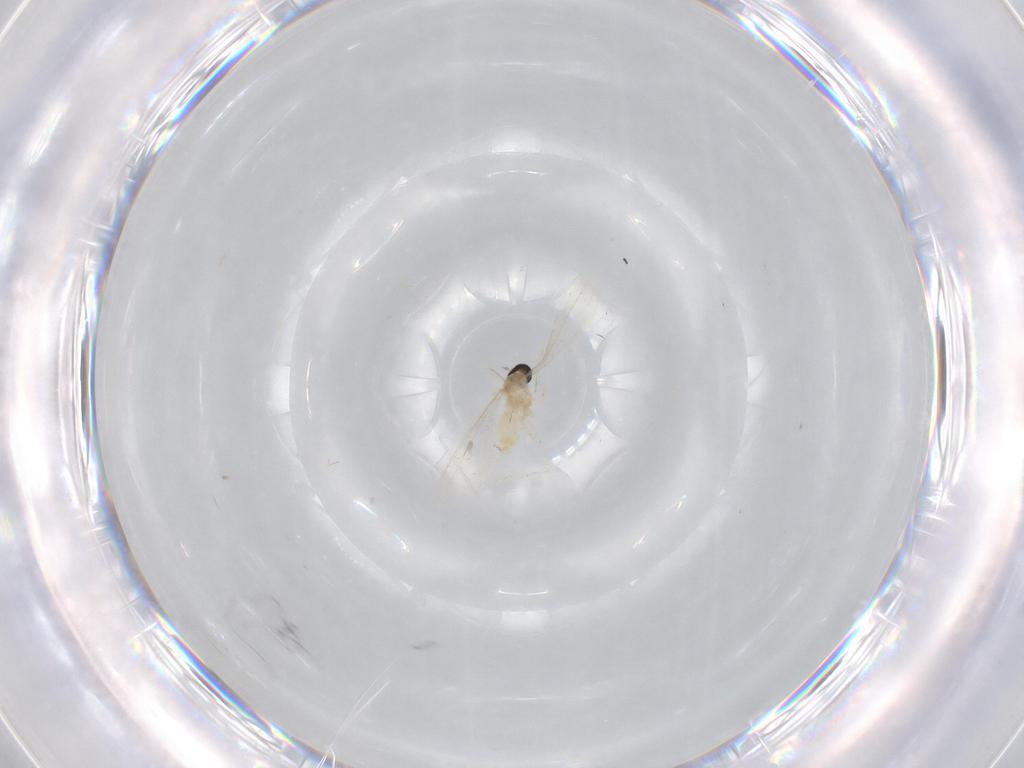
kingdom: Animalia
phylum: Arthropoda
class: Insecta
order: Diptera
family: Cecidomyiidae
